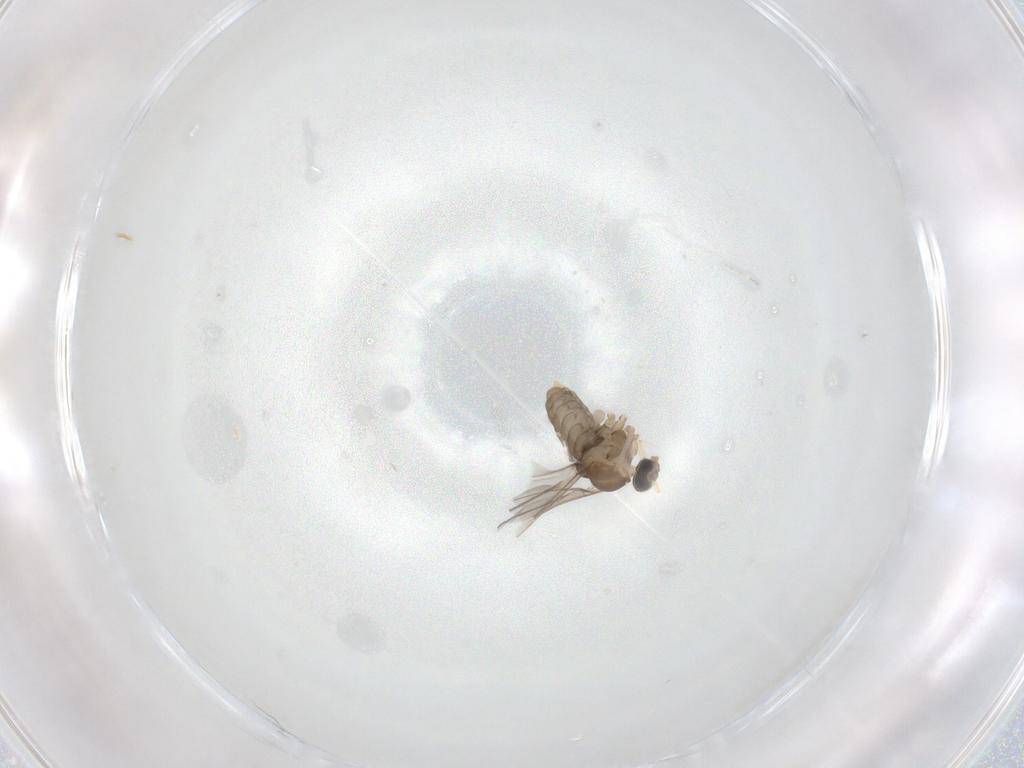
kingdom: Animalia
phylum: Arthropoda
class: Insecta
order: Diptera
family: Cecidomyiidae
